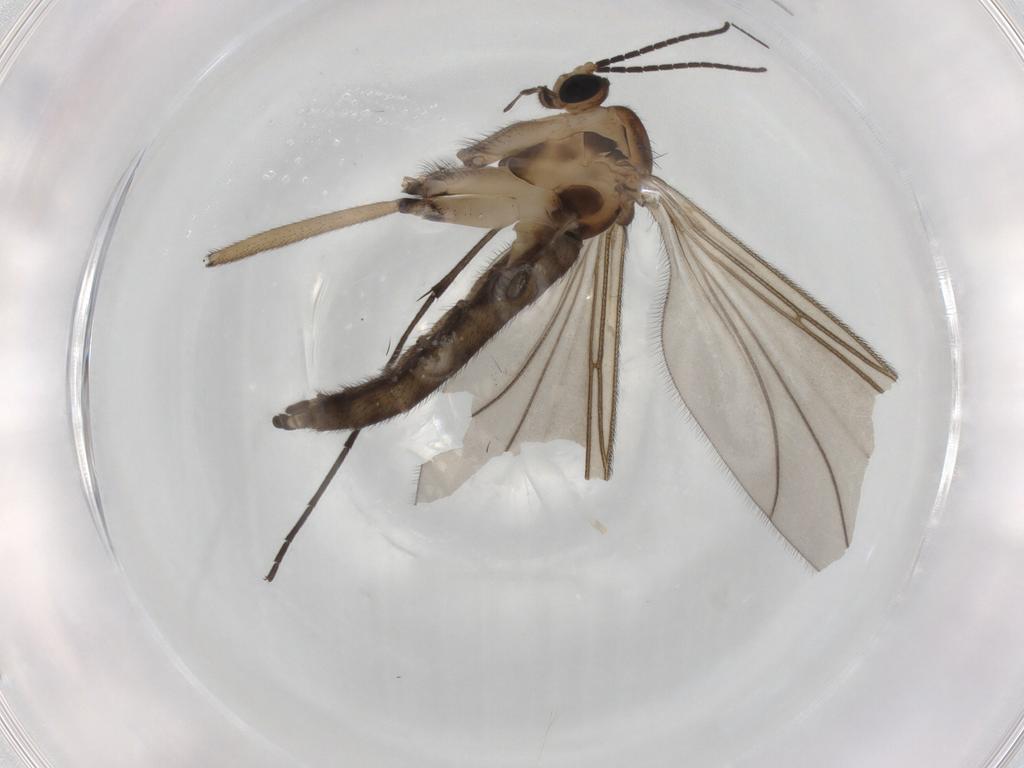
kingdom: Animalia
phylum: Arthropoda
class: Insecta
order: Diptera
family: Sciaridae
